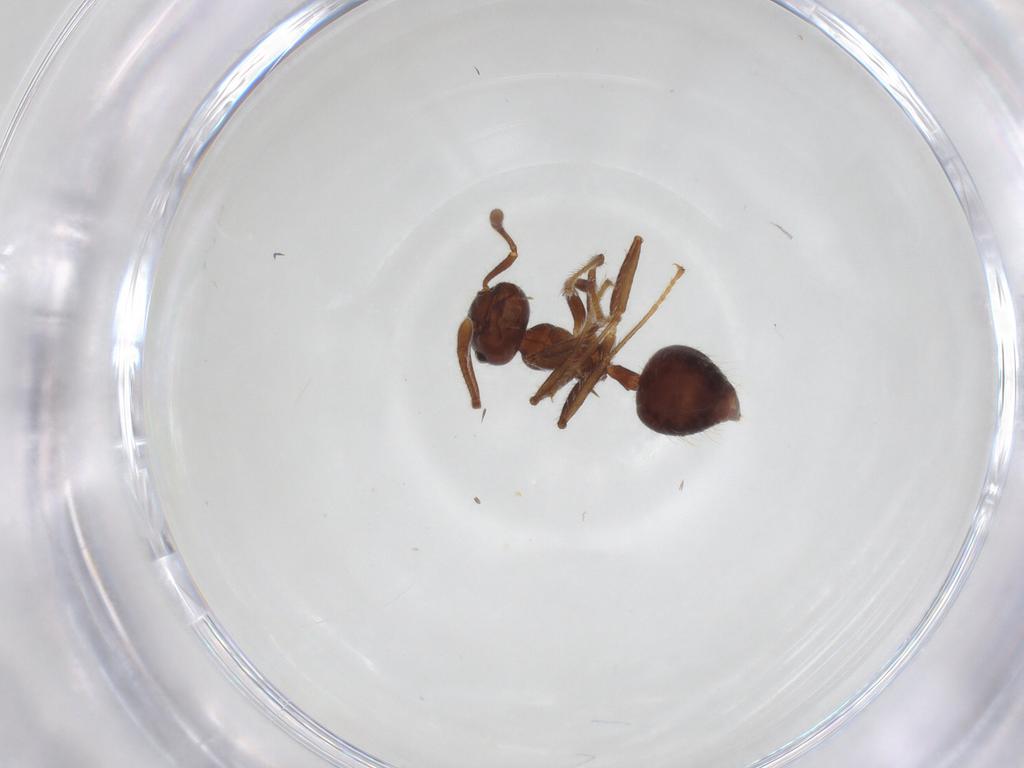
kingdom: Animalia
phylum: Arthropoda
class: Insecta
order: Hymenoptera
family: Formicidae
